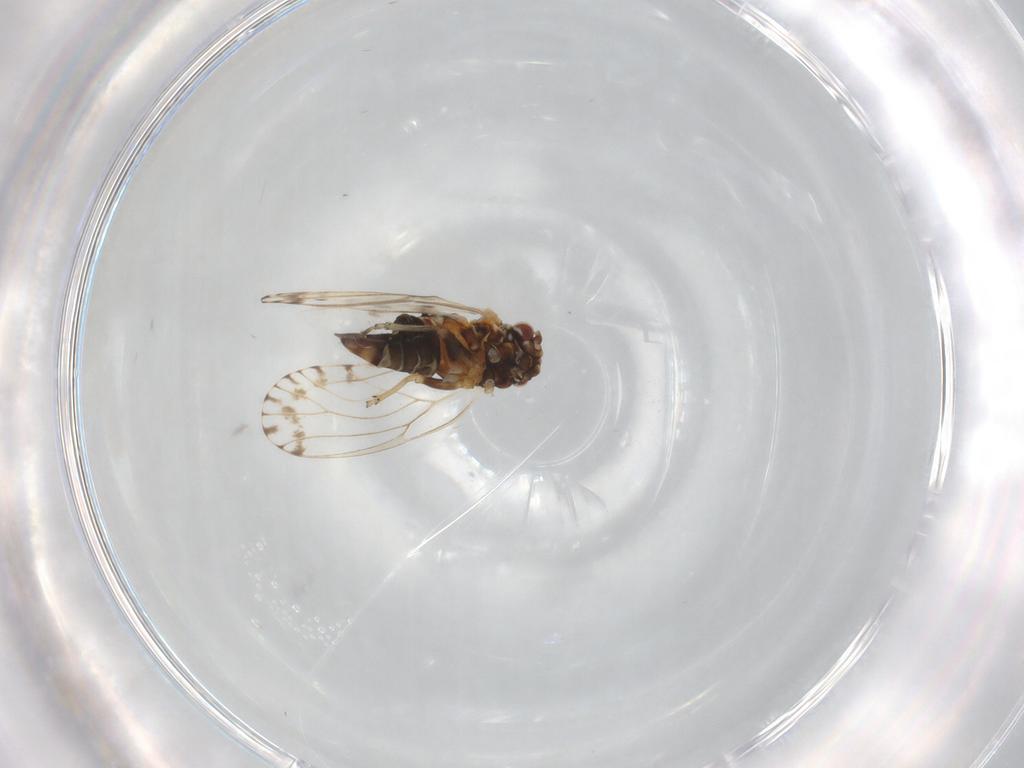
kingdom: Animalia
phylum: Arthropoda
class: Insecta
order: Hemiptera
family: Psyllidae
